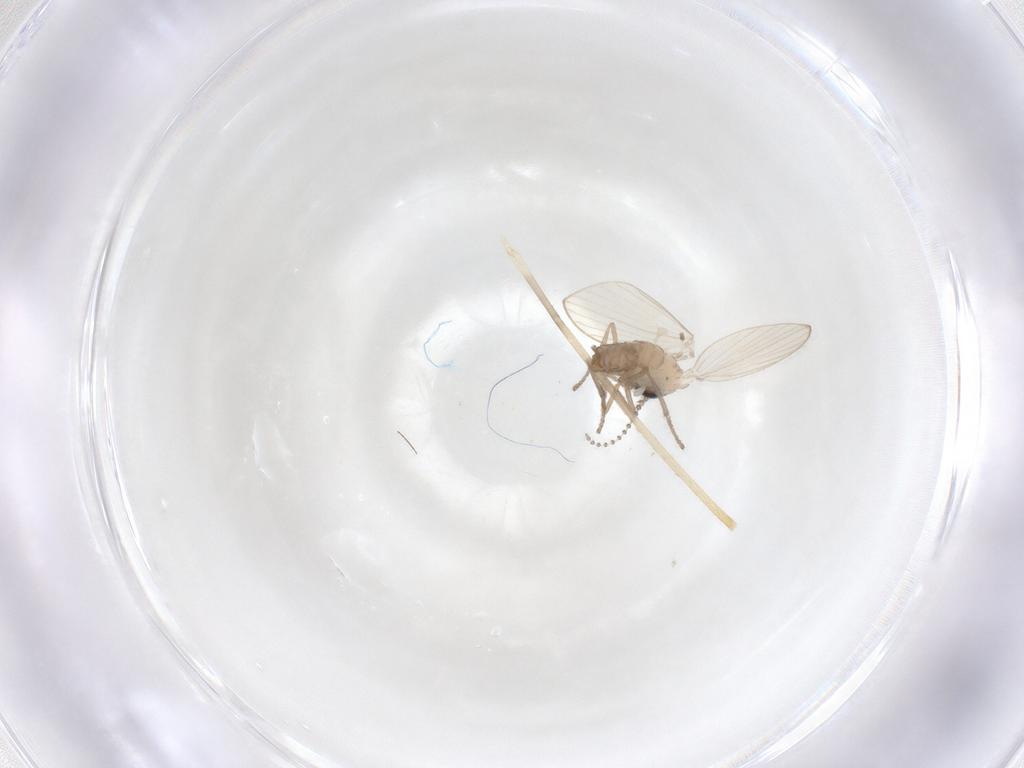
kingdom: Animalia
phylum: Arthropoda
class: Insecta
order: Diptera
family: Limoniidae
